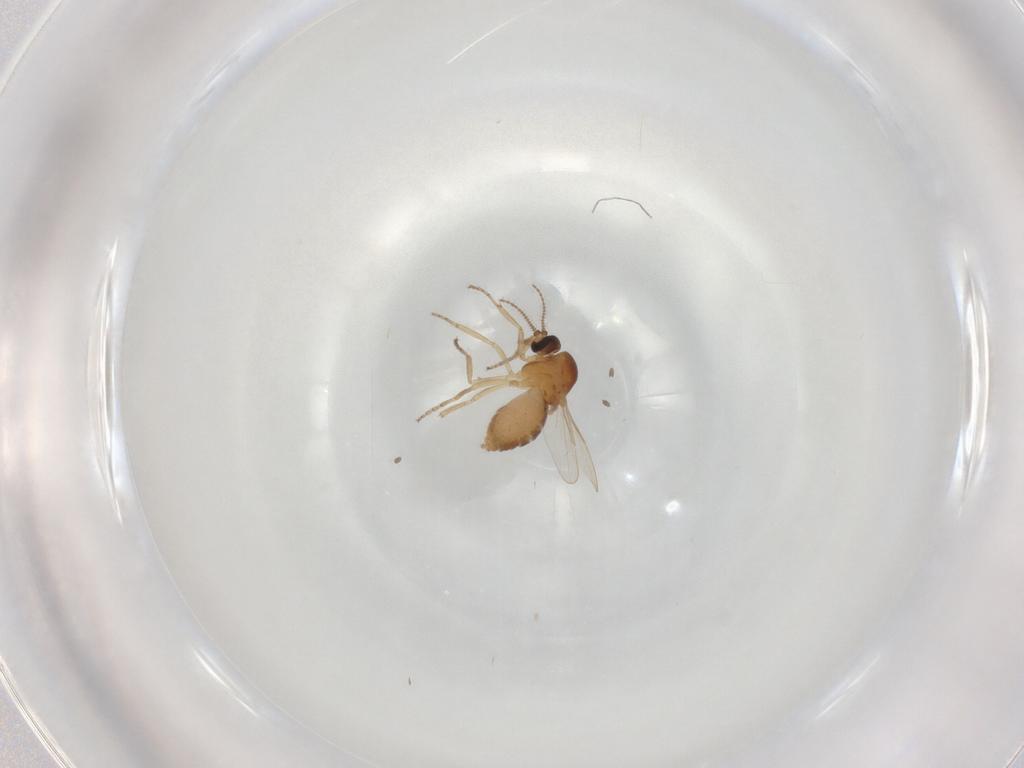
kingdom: Animalia
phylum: Arthropoda
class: Insecta
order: Diptera
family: Ceratopogonidae
